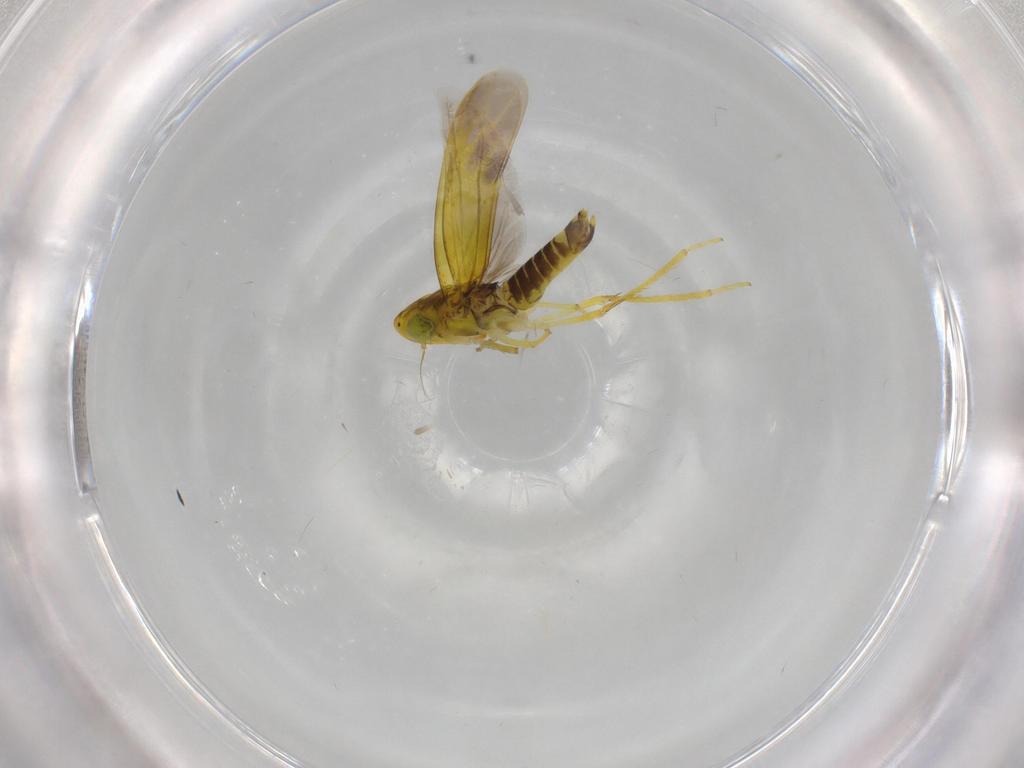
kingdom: Animalia
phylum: Arthropoda
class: Insecta
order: Hemiptera
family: Cicadellidae
